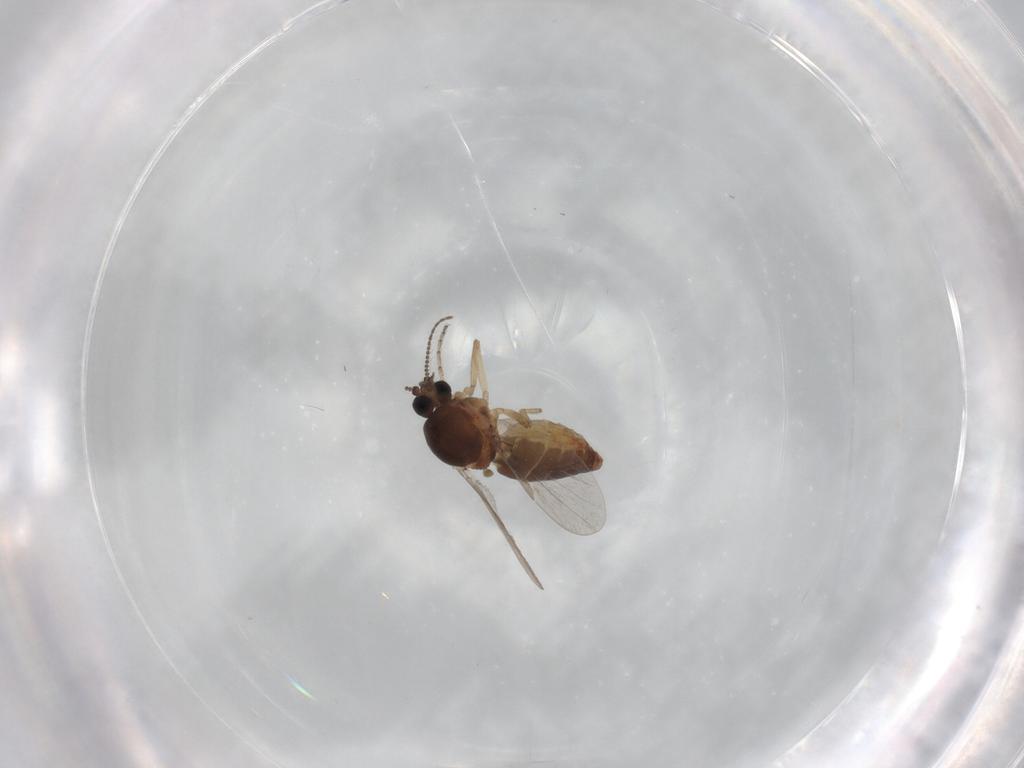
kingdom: Animalia
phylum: Arthropoda
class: Insecta
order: Diptera
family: Ceratopogonidae
